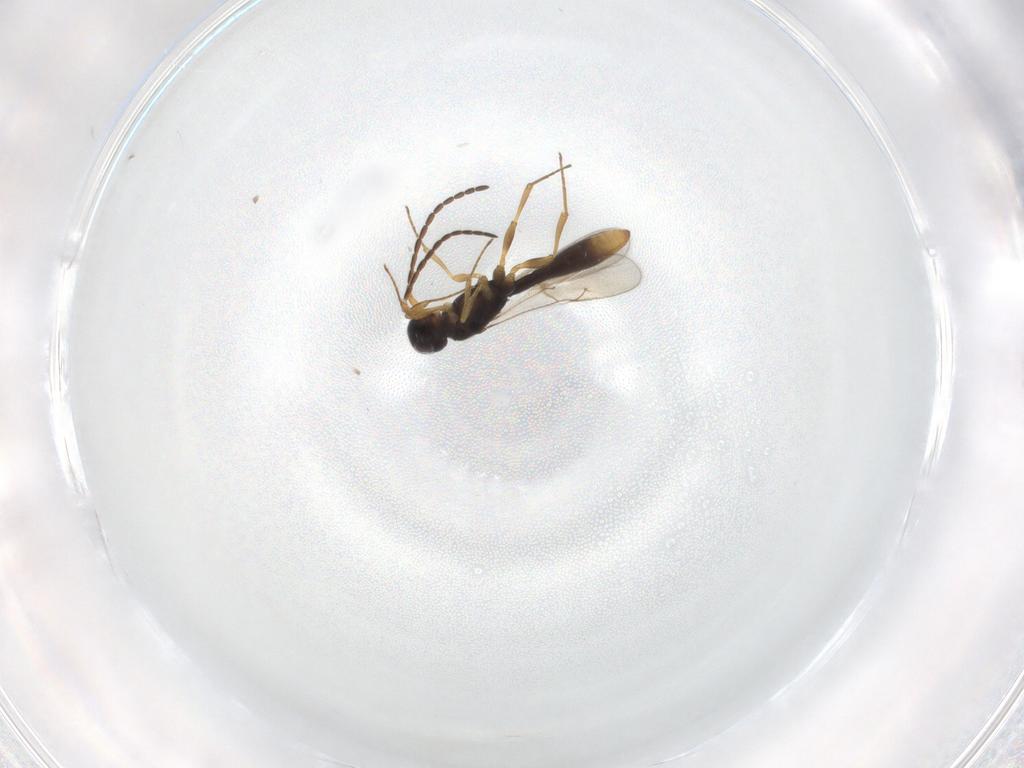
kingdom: Animalia
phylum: Arthropoda
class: Insecta
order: Hymenoptera
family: Scelionidae
